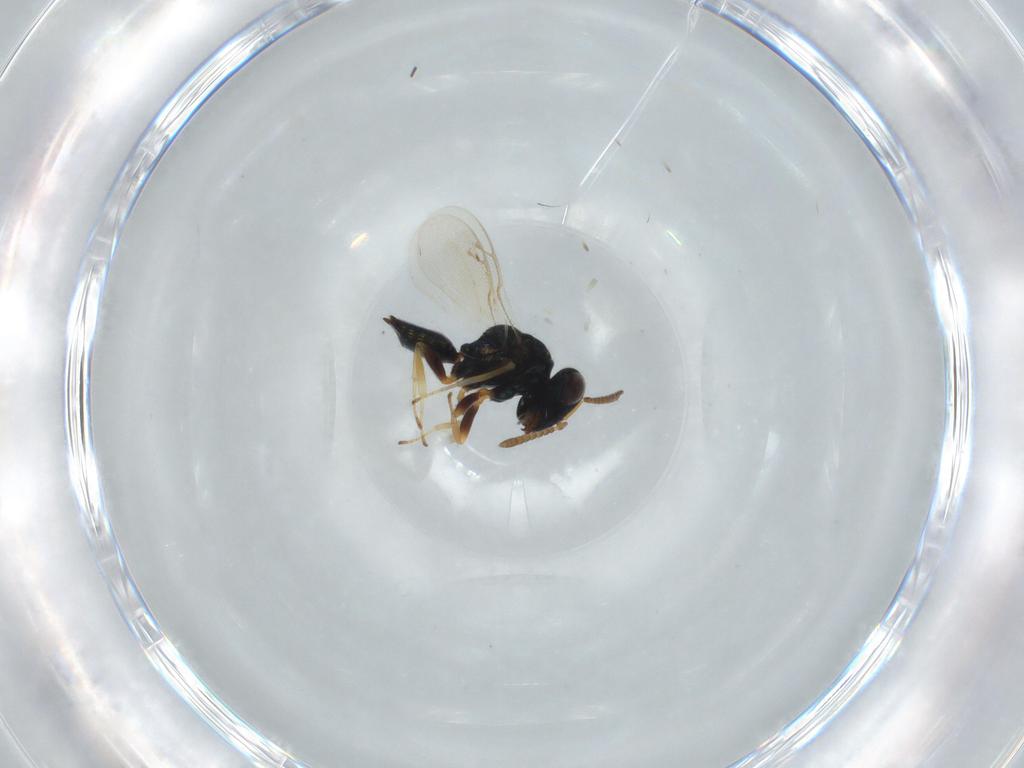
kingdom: Animalia
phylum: Arthropoda
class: Insecta
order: Hymenoptera
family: Pteromalidae
